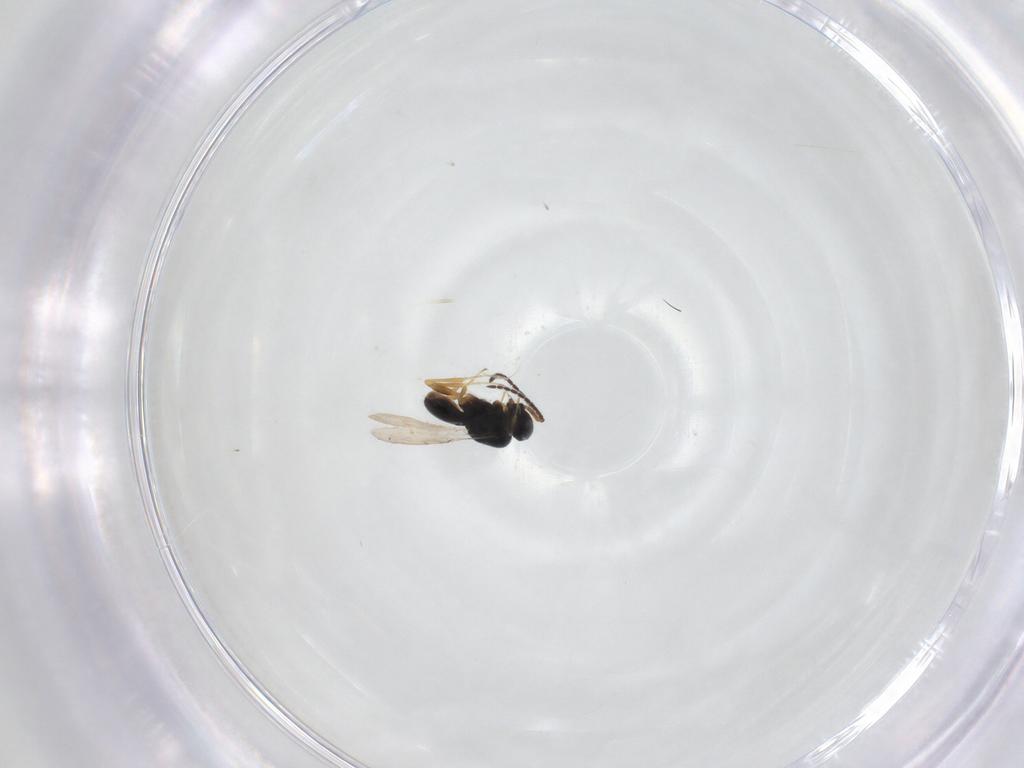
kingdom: Animalia
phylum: Arthropoda
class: Insecta
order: Hymenoptera
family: Scelionidae
